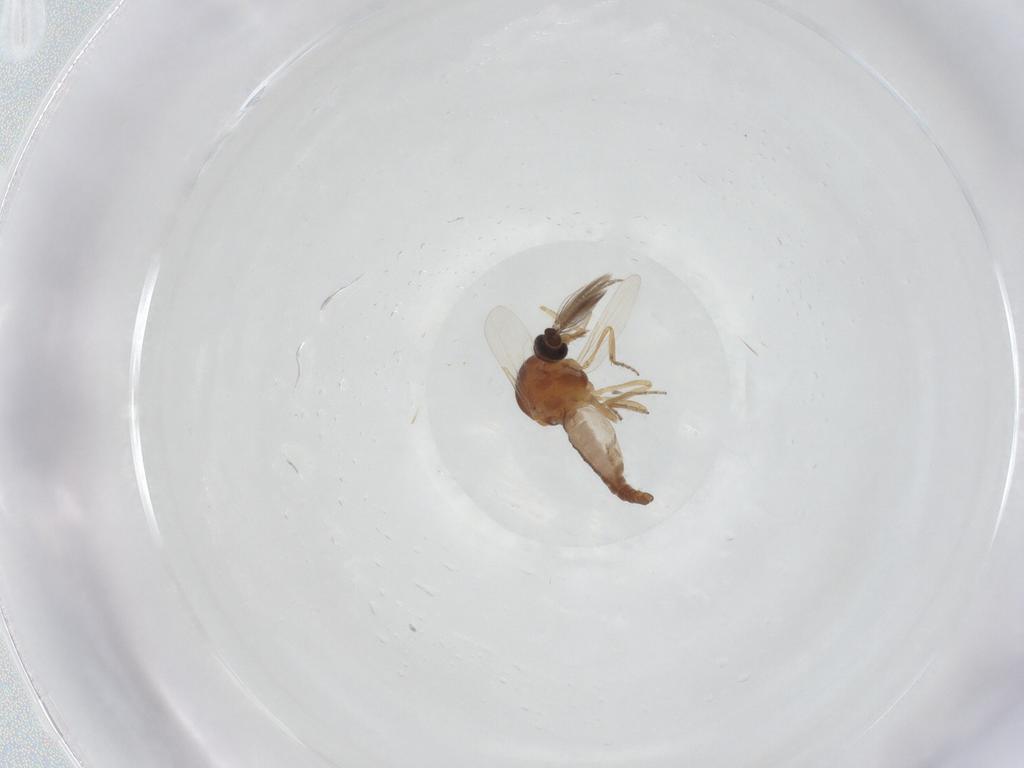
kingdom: Animalia
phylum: Arthropoda
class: Insecta
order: Diptera
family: Ceratopogonidae
